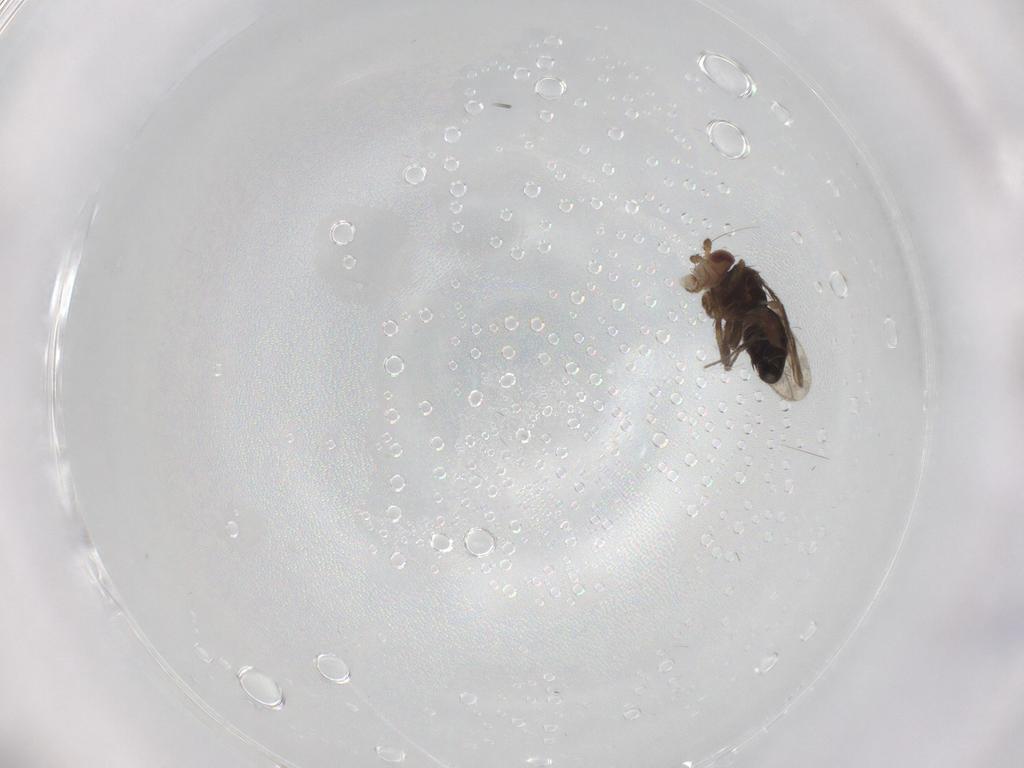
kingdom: Animalia
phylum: Arthropoda
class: Insecta
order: Diptera
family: Sphaeroceridae
